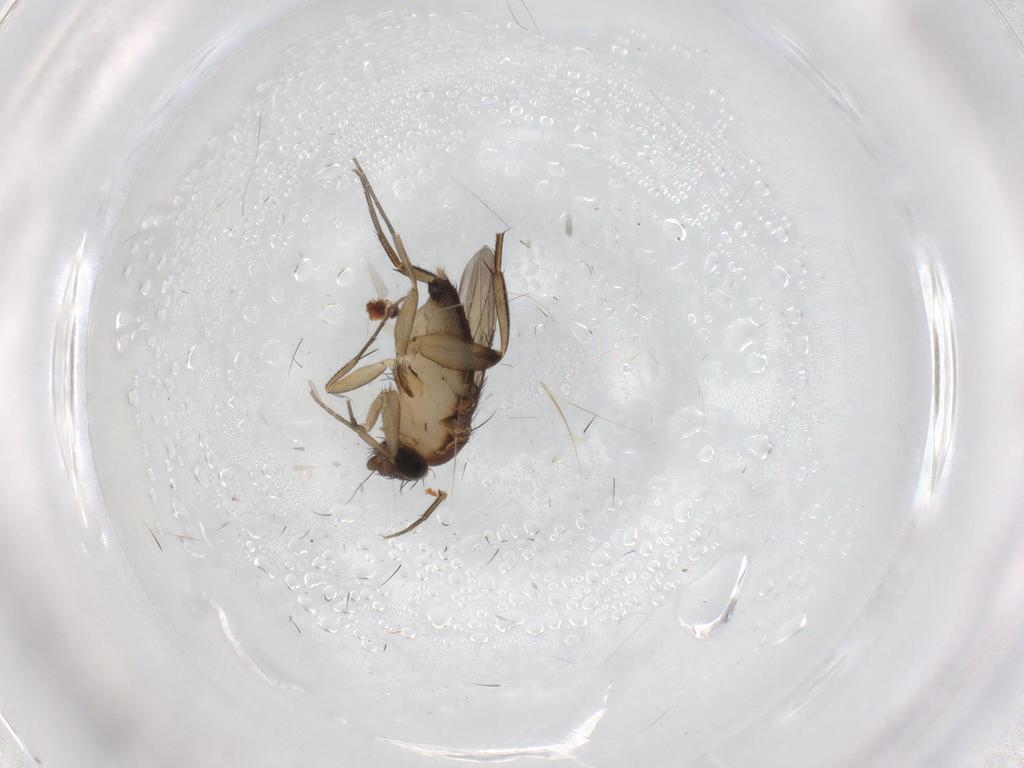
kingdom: Animalia
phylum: Arthropoda
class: Insecta
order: Diptera
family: Phoridae
